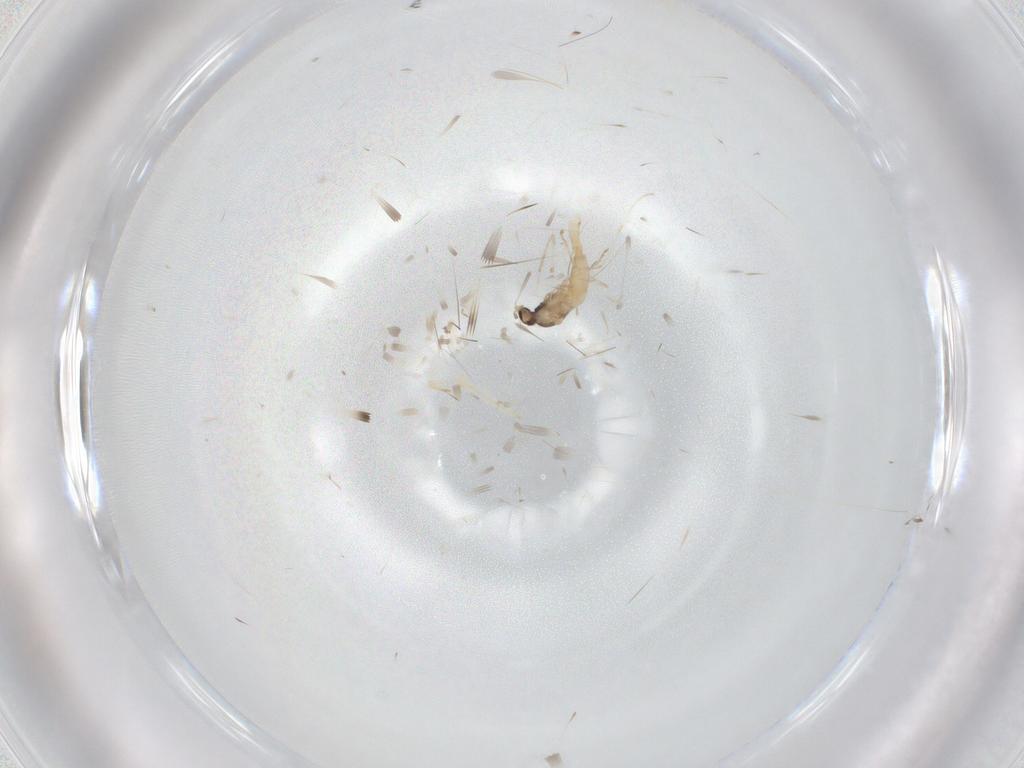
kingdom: Animalia
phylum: Arthropoda
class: Insecta
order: Diptera
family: Cecidomyiidae
